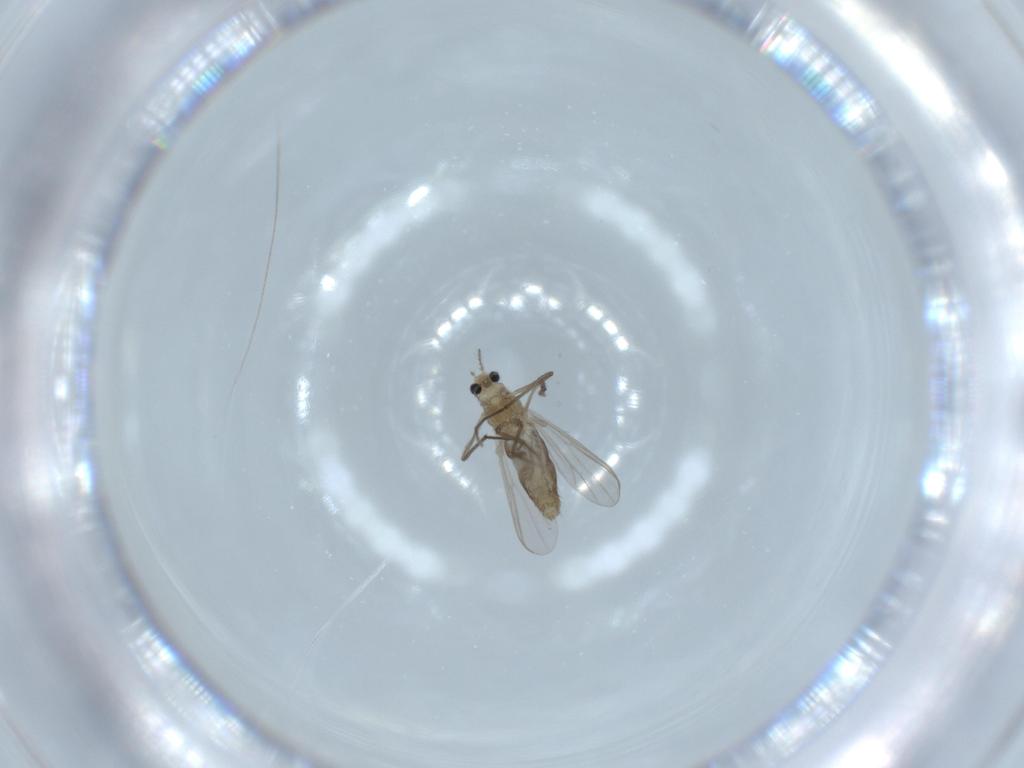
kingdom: Animalia
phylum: Arthropoda
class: Insecta
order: Diptera
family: Chironomidae
